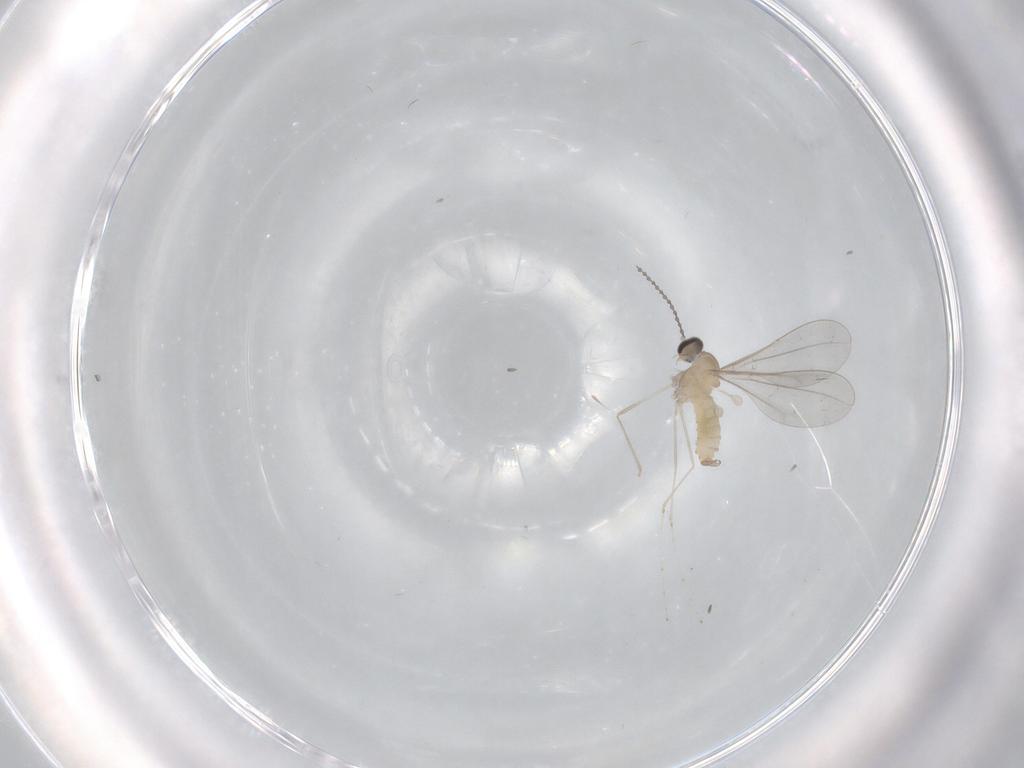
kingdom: Animalia
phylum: Arthropoda
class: Insecta
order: Diptera
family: Cecidomyiidae
